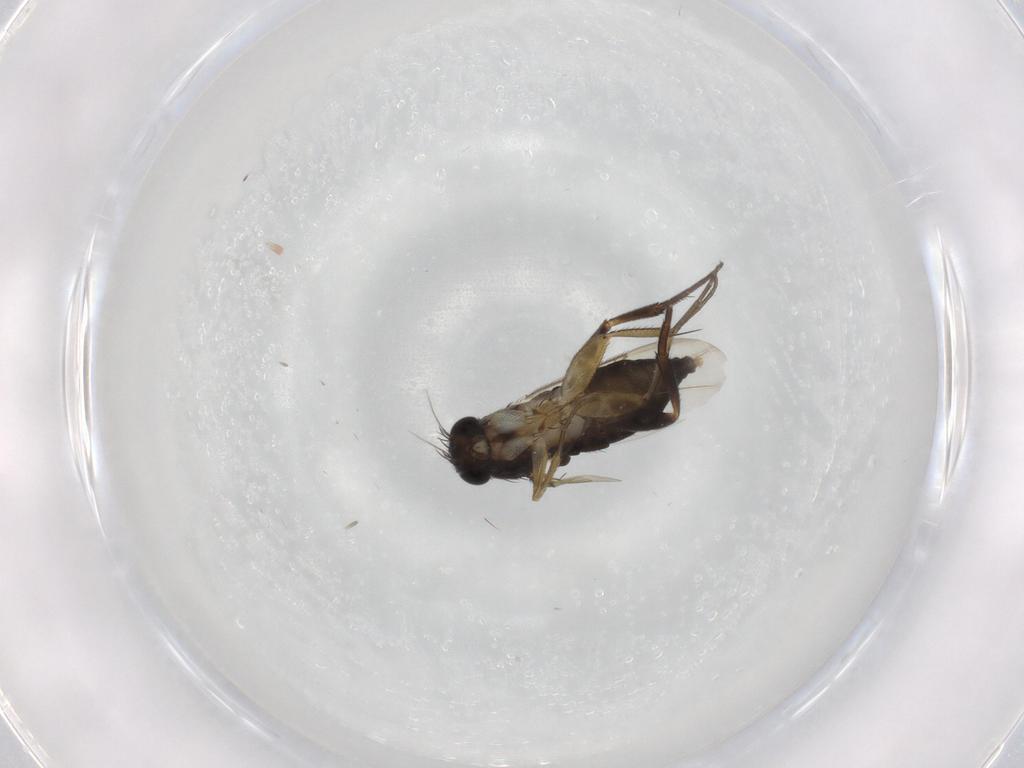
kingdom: Animalia
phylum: Arthropoda
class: Insecta
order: Diptera
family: Phoridae
